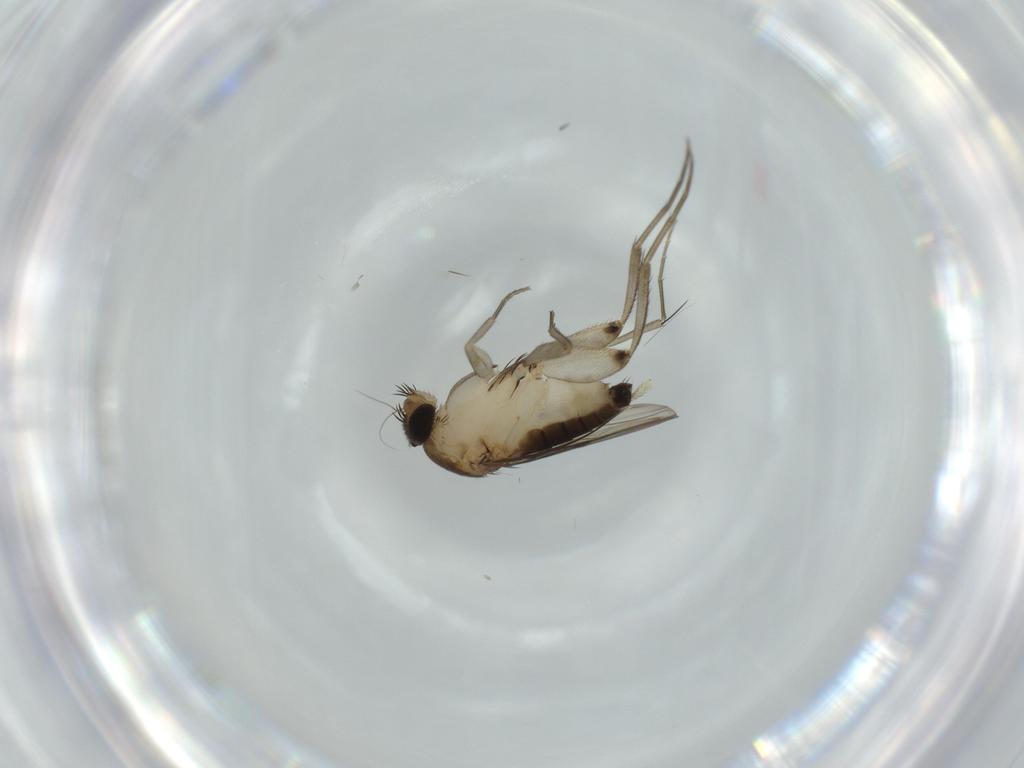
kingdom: Animalia
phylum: Arthropoda
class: Insecta
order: Diptera
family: Phoridae
